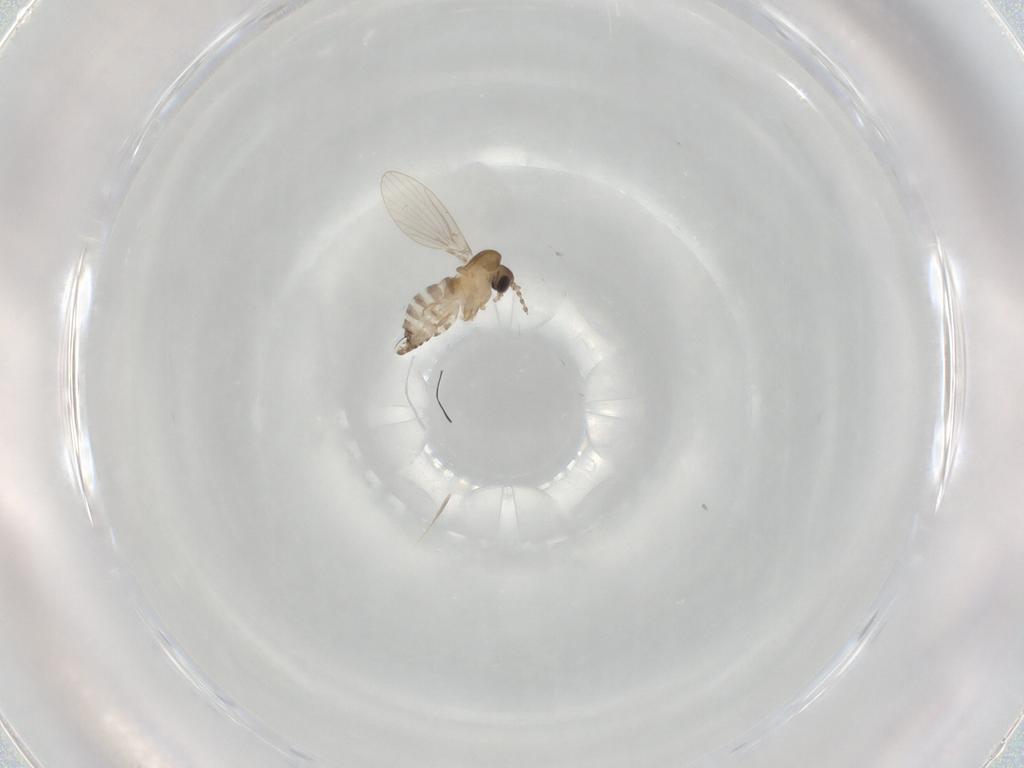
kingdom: Animalia
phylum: Arthropoda
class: Insecta
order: Diptera
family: Psychodidae
